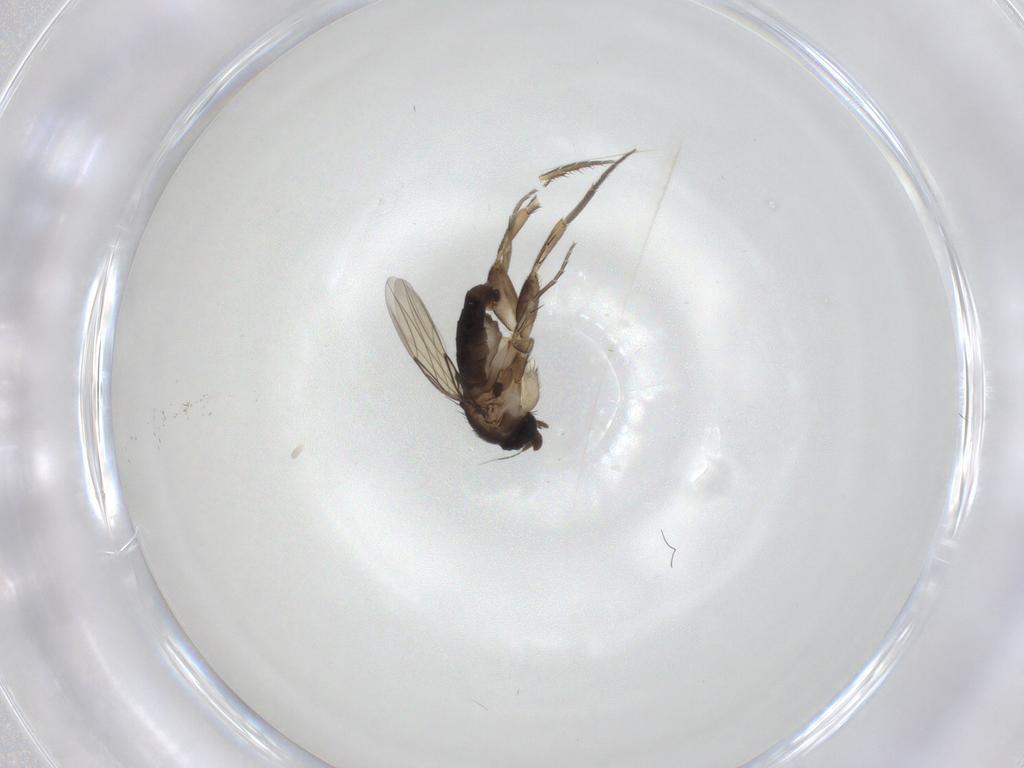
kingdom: Animalia
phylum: Arthropoda
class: Insecta
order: Diptera
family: Phoridae
